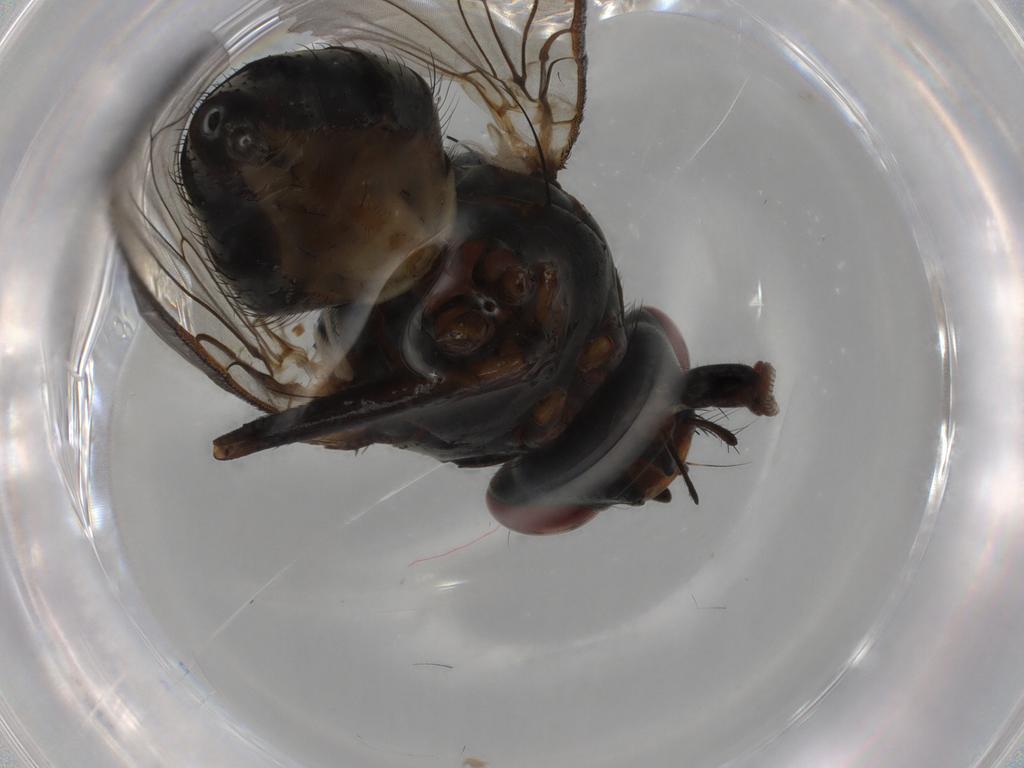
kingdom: Animalia
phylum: Arthropoda
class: Insecta
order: Diptera
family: Sciaridae
